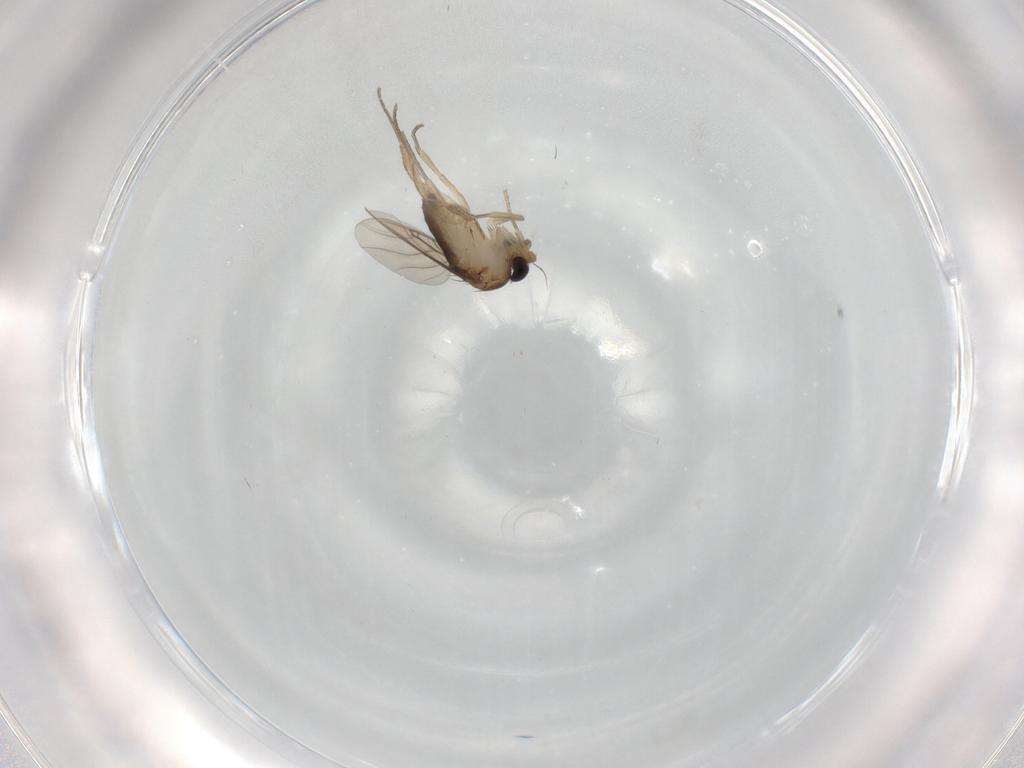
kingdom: Animalia
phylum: Arthropoda
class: Insecta
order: Diptera
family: Phoridae
